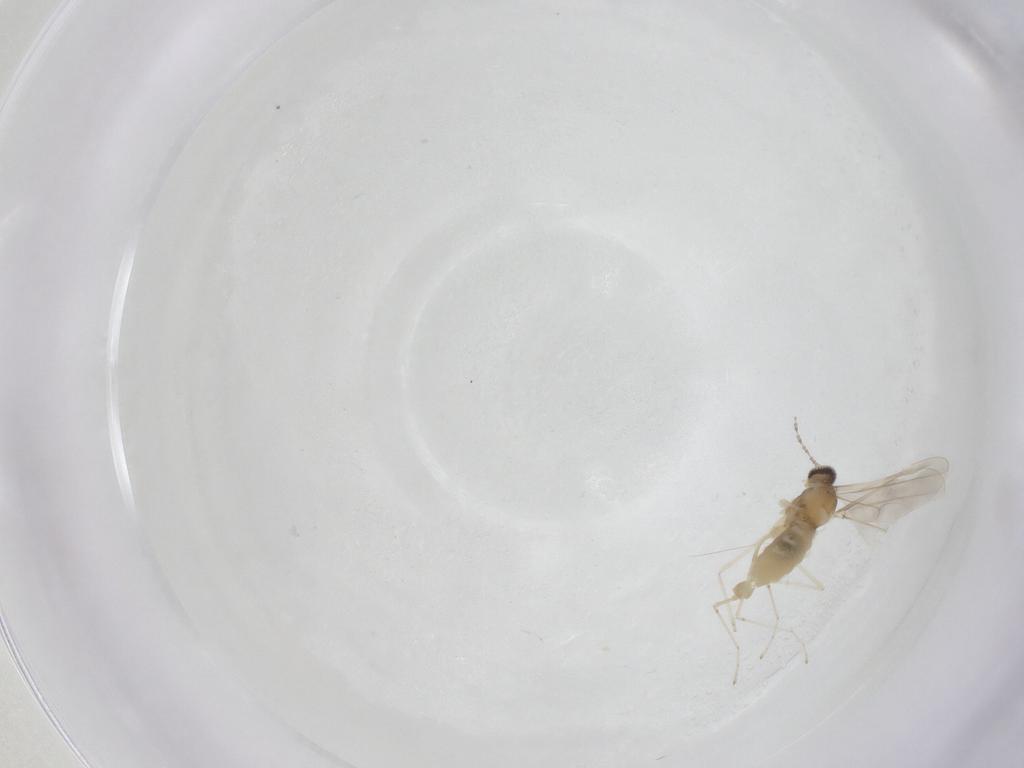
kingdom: Animalia
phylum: Arthropoda
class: Insecta
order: Diptera
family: Cecidomyiidae
